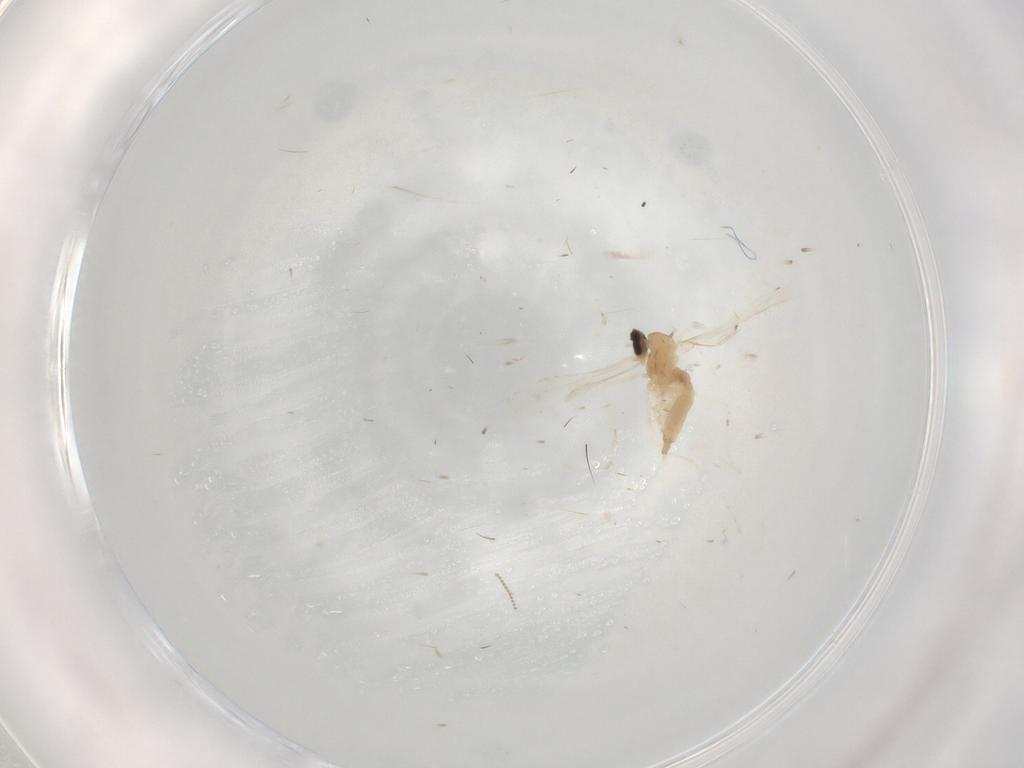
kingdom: Animalia
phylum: Arthropoda
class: Insecta
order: Diptera
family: Cecidomyiidae
